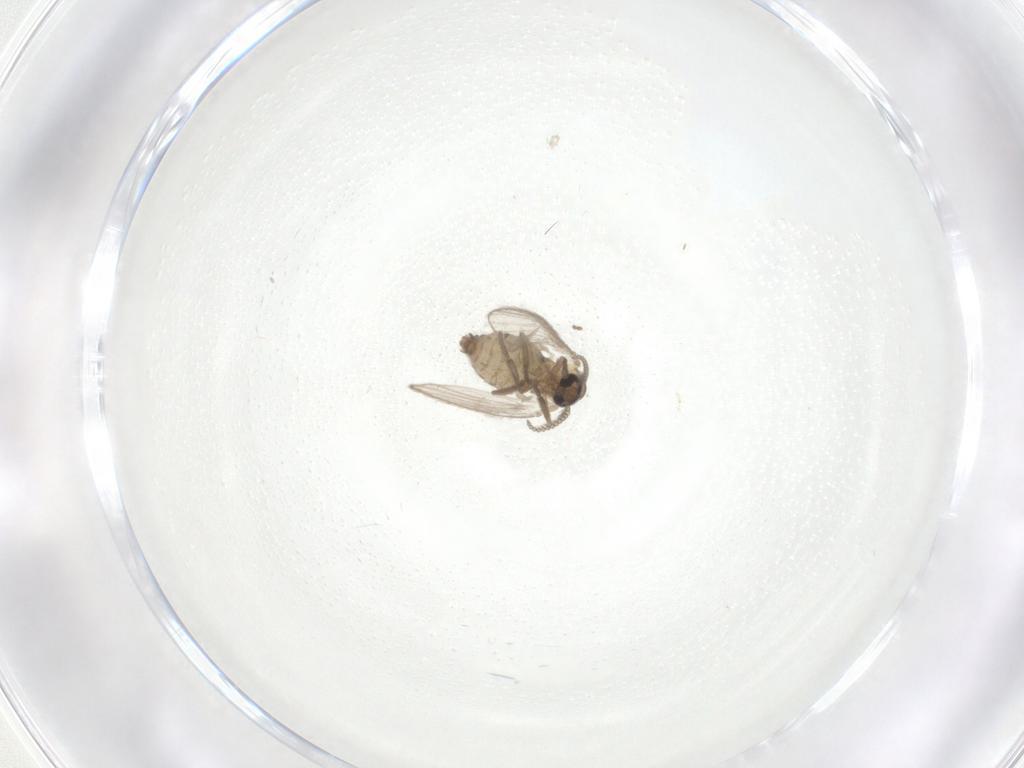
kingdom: Animalia
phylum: Arthropoda
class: Insecta
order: Diptera
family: Psychodidae
